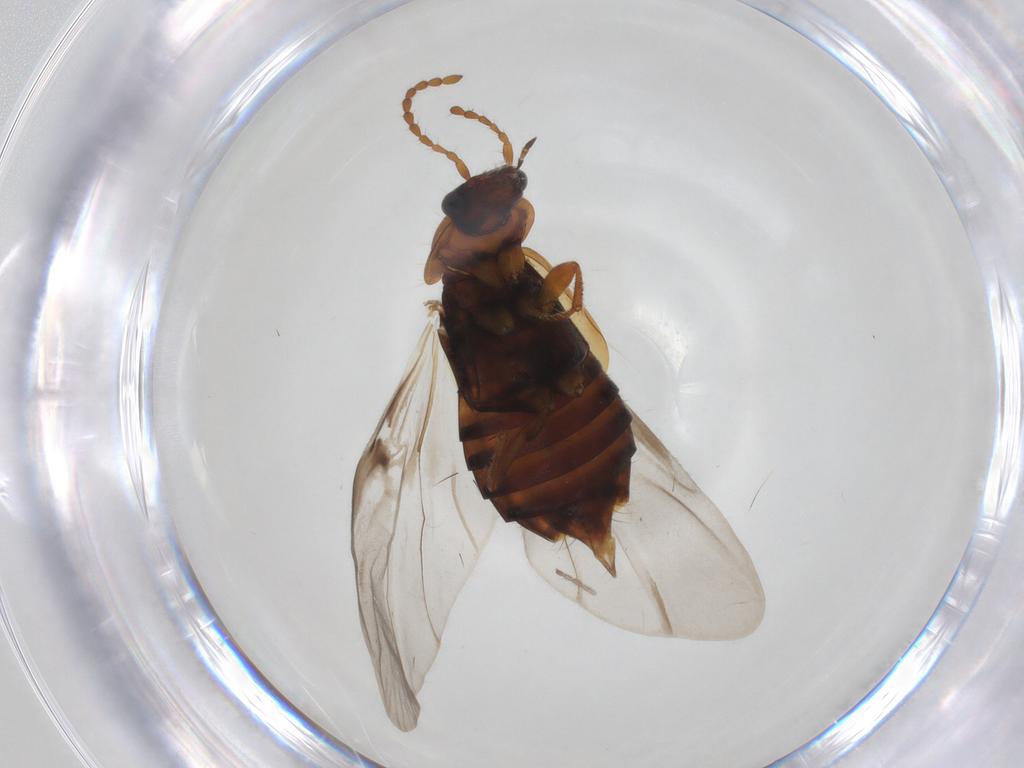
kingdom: Animalia
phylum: Arthropoda
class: Insecta
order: Coleoptera
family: Staphylinidae
